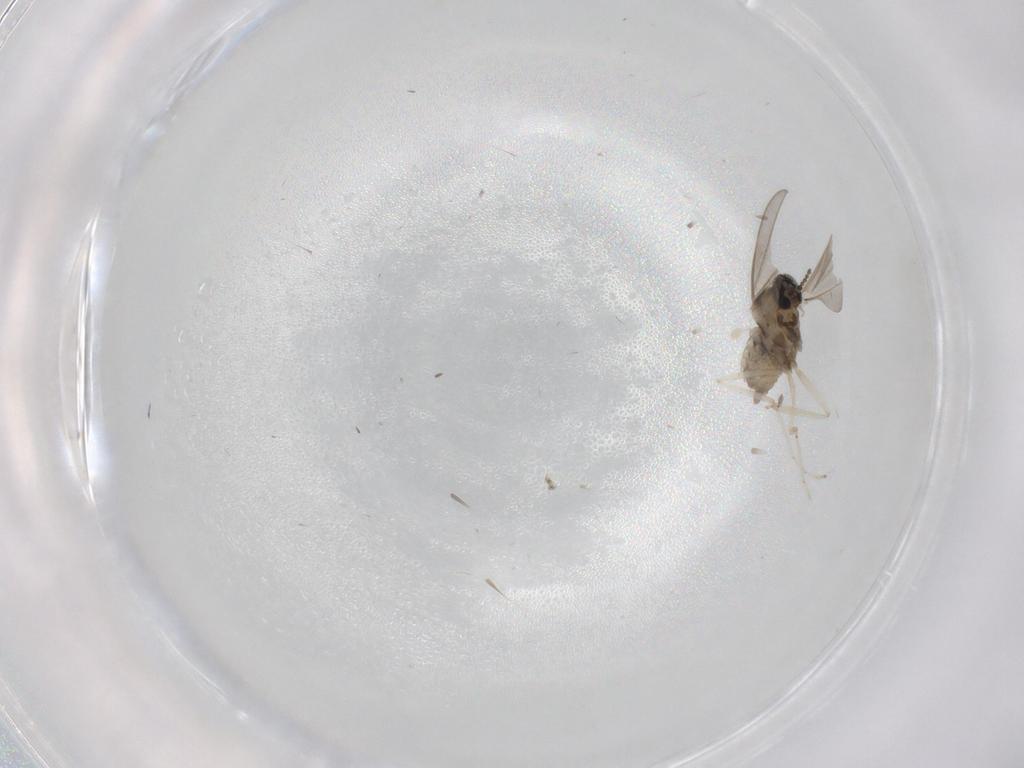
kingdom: Animalia
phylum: Arthropoda
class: Insecta
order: Diptera
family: Cecidomyiidae
